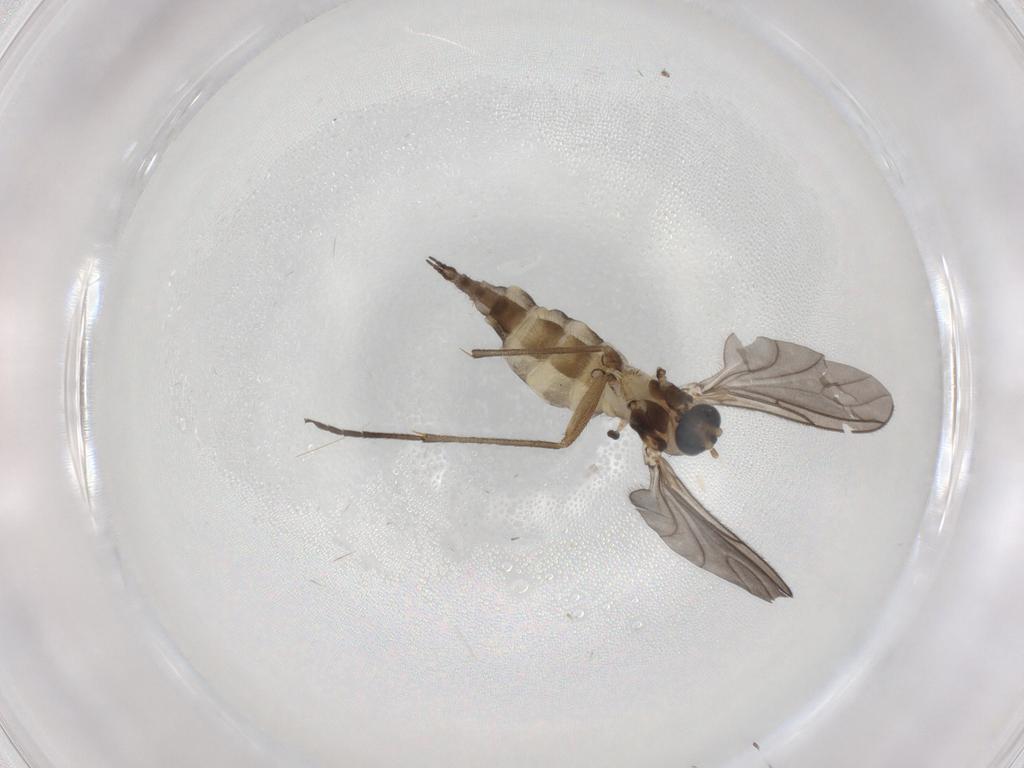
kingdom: Animalia
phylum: Arthropoda
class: Insecta
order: Diptera
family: Sciaridae
